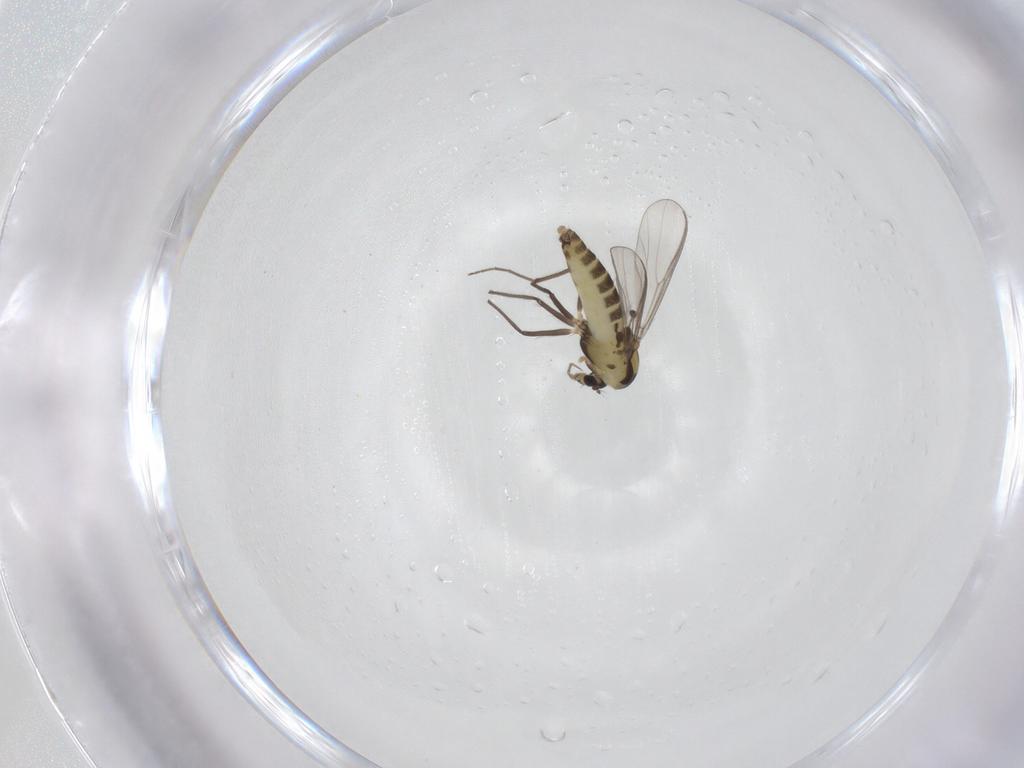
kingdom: Animalia
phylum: Arthropoda
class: Insecta
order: Diptera
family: Chironomidae
